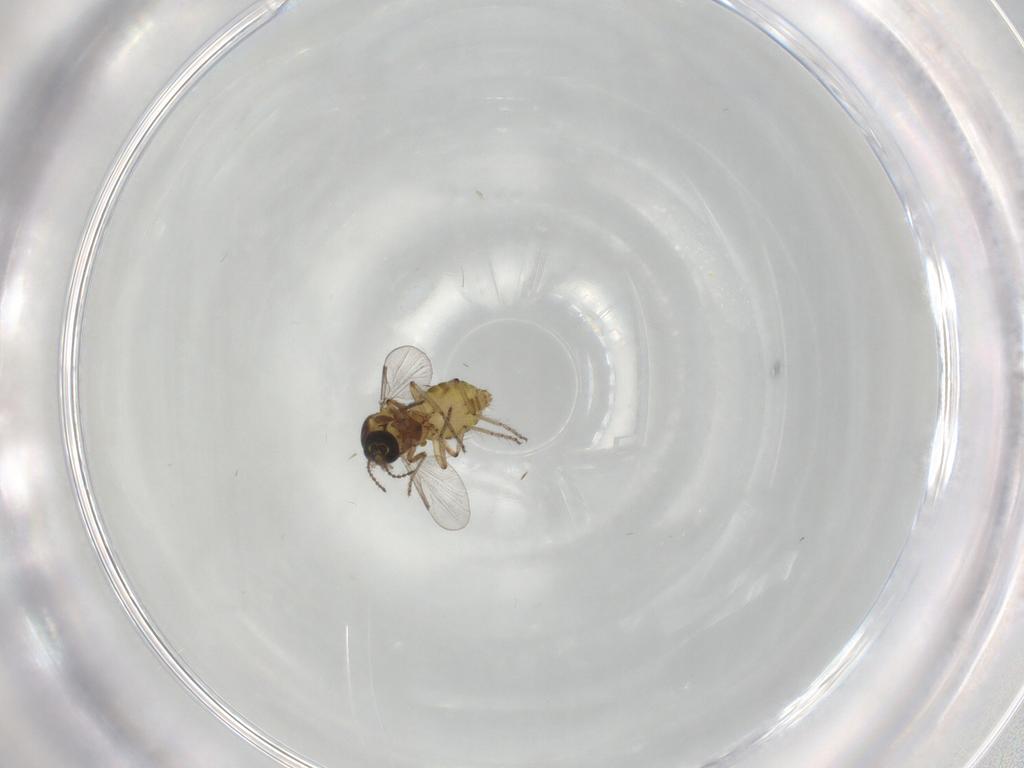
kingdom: Animalia
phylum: Arthropoda
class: Insecta
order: Diptera
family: Ceratopogonidae
